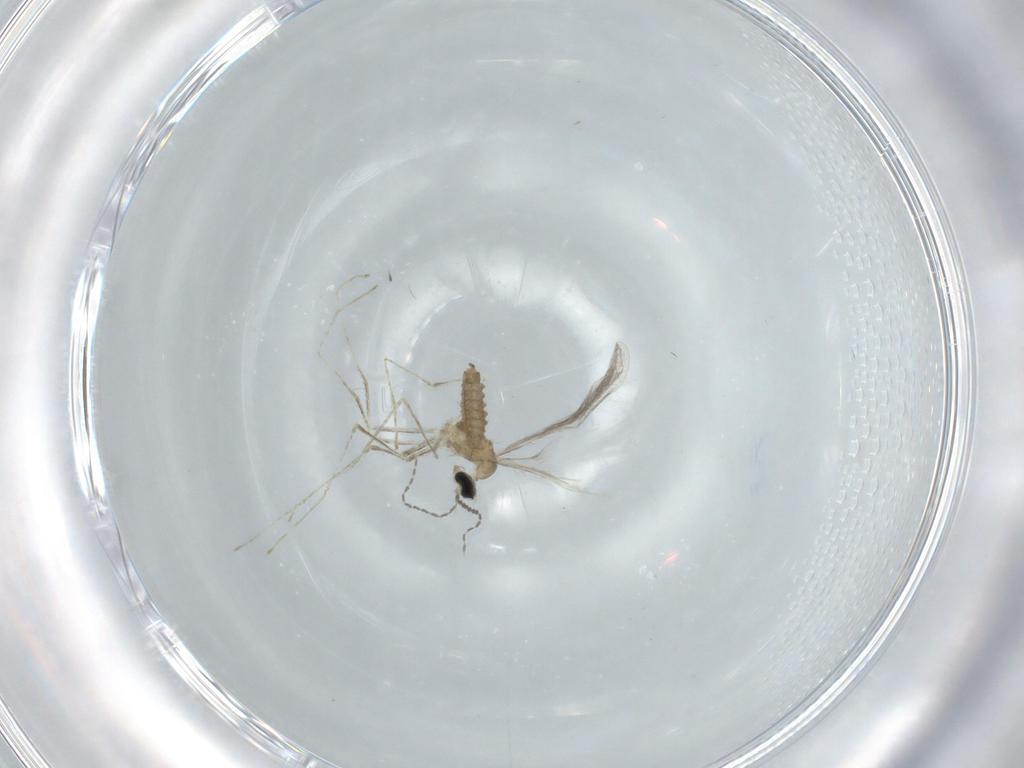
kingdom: Animalia
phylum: Arthropoda
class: Insecta
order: Diptera
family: Cecidomyiidae
